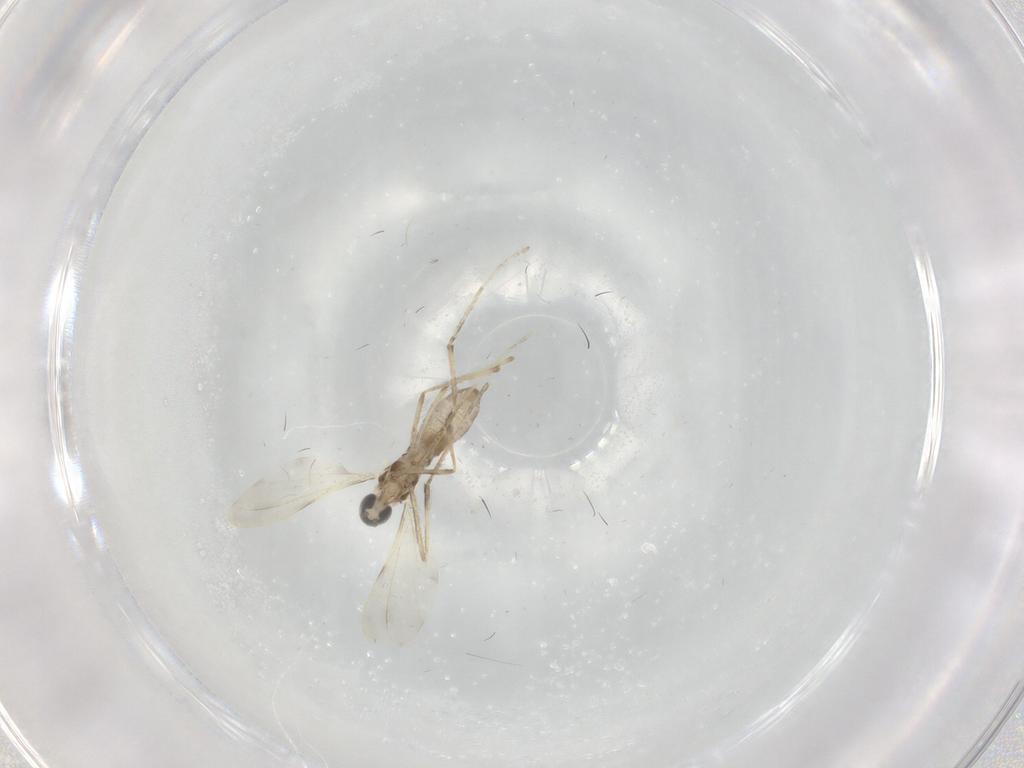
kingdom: Animalia
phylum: Arthropoda
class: Insecta
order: Diptera
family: Cecidomyiidae
